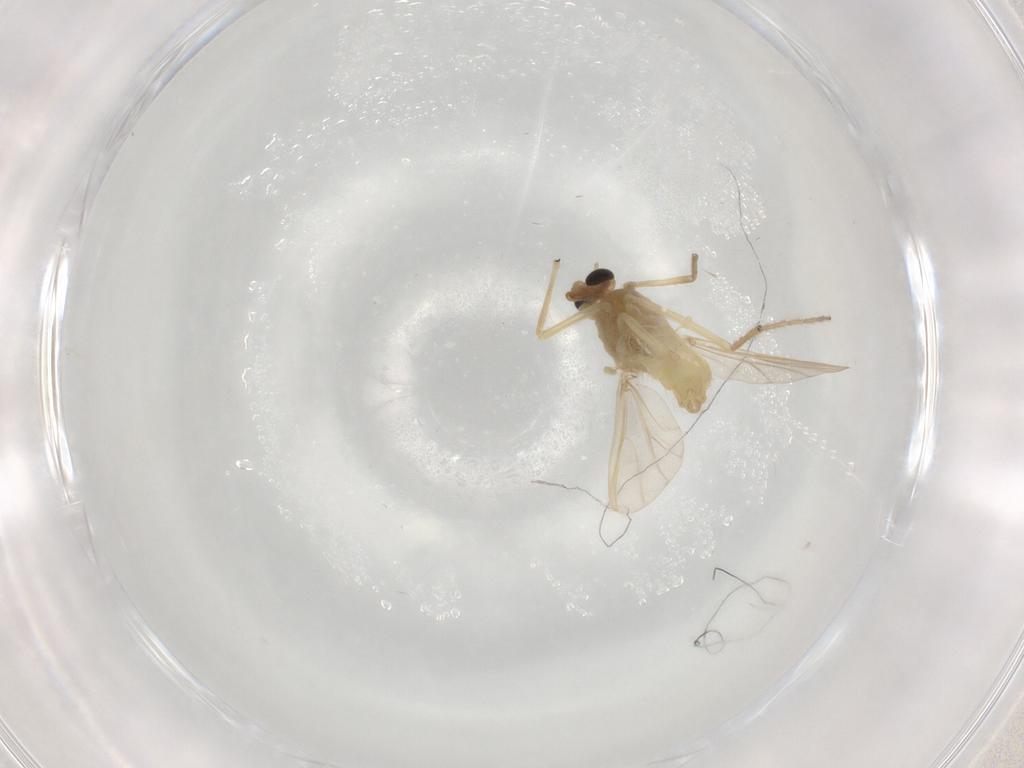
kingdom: Animalia
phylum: Arthropoda
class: Insecta
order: Diptera
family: Chironomidae
